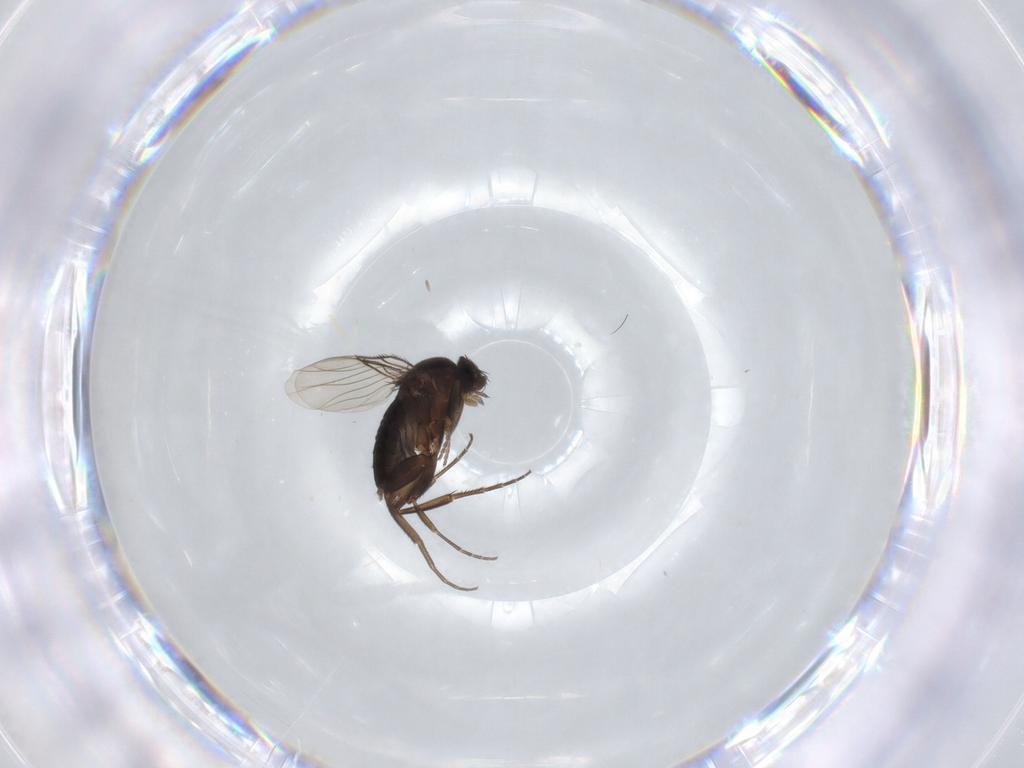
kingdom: Animalia
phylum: Arthropoda
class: Insecta
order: Diptera
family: Phoridae
